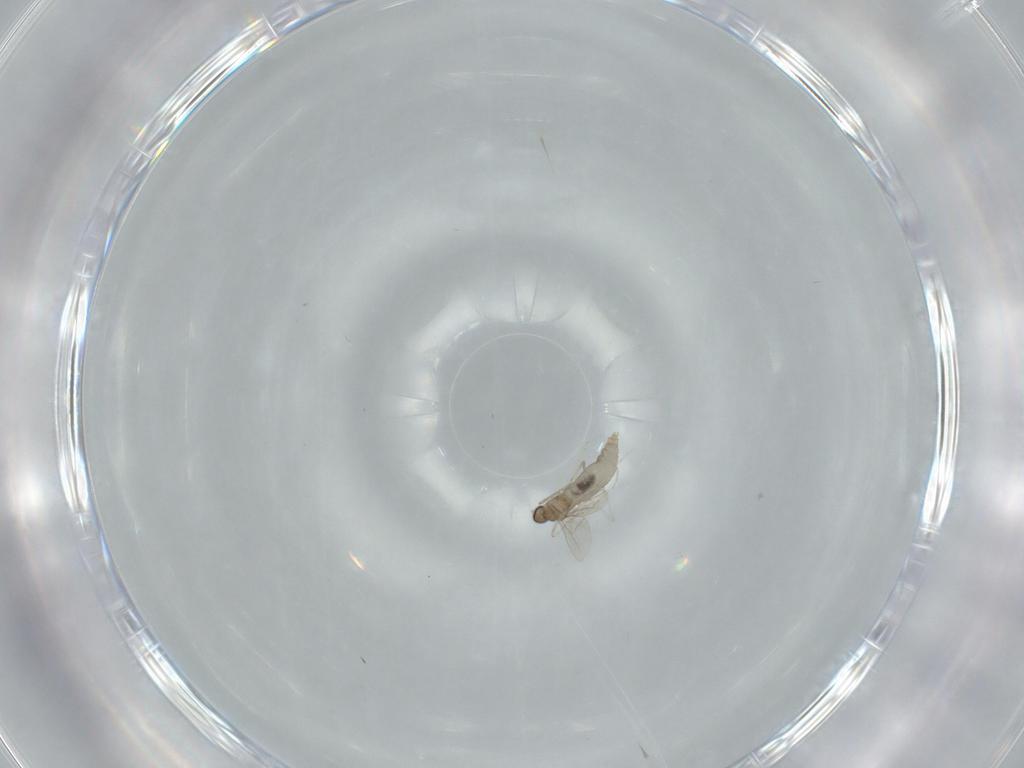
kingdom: Animalia
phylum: Arthropoda
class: Insecta
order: Diptera
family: Cecidomyiidae
